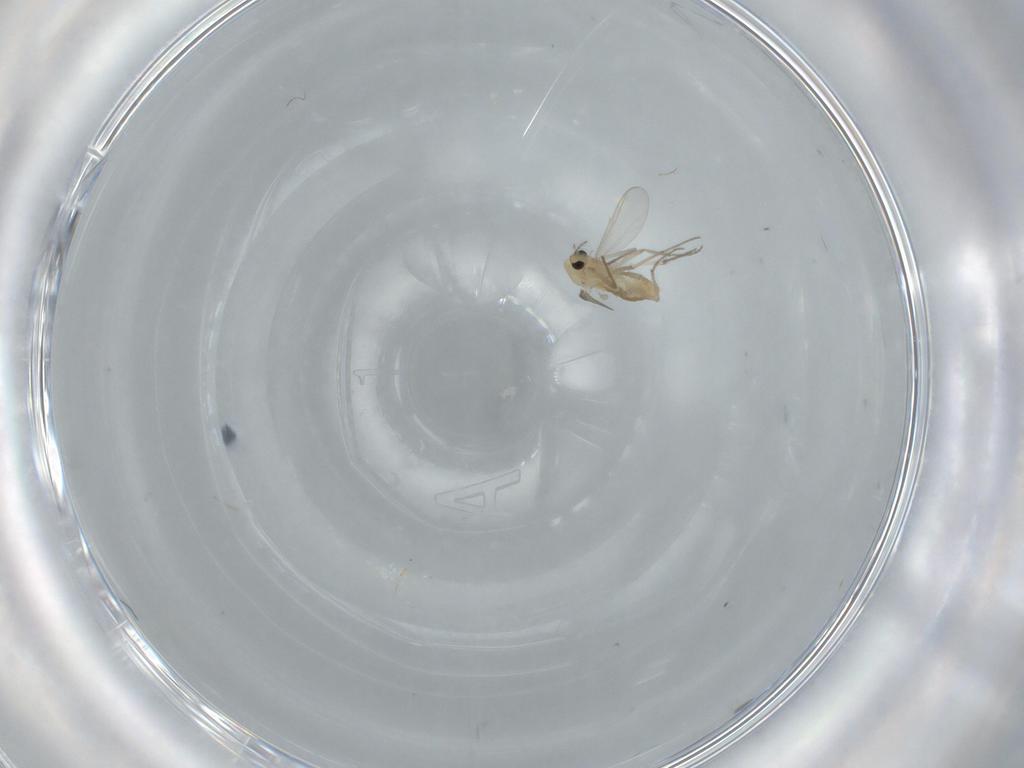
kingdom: Animalia
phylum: Arthropoda
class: Insecta
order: Diptera
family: Chironomidae
